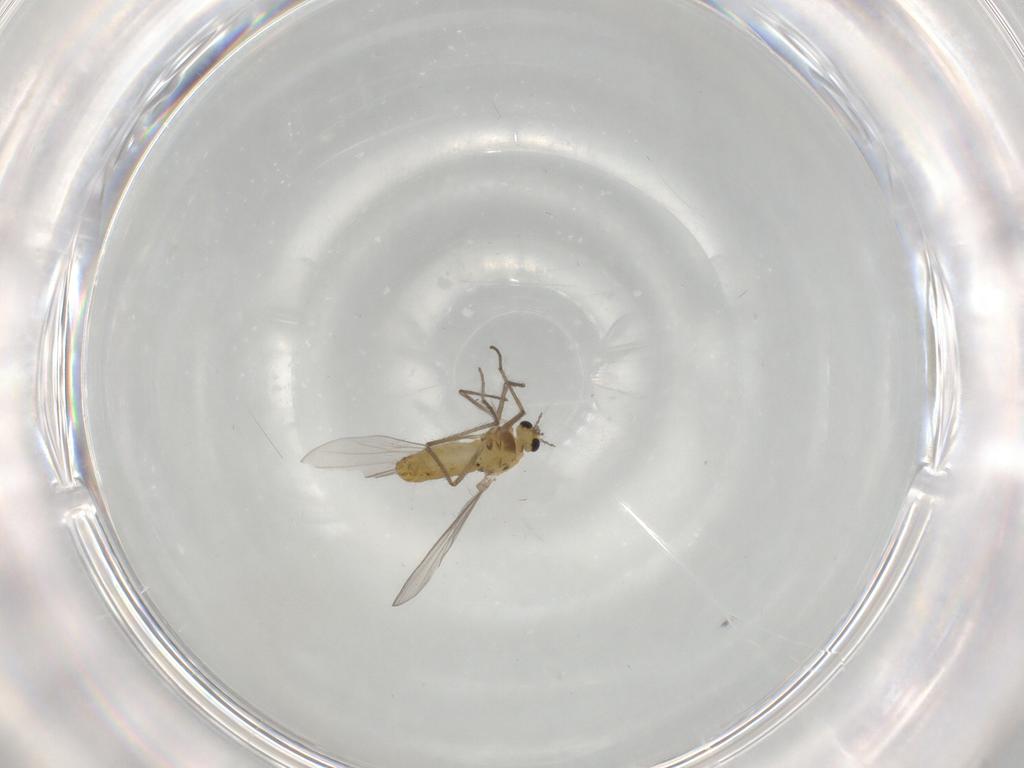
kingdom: Animalia
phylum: Arthropoda
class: Insecta
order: Diptera
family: Chironomidae
